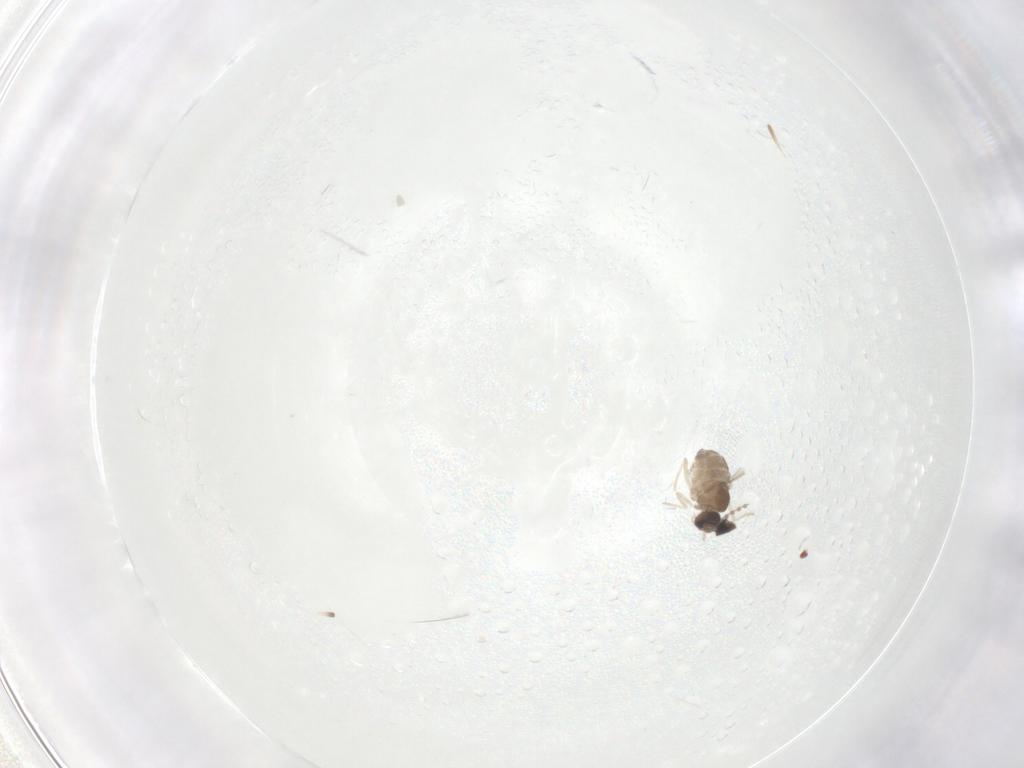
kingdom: Animalia
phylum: Arthropoda
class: Insecta
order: Diptera
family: Cecidomyiidae
